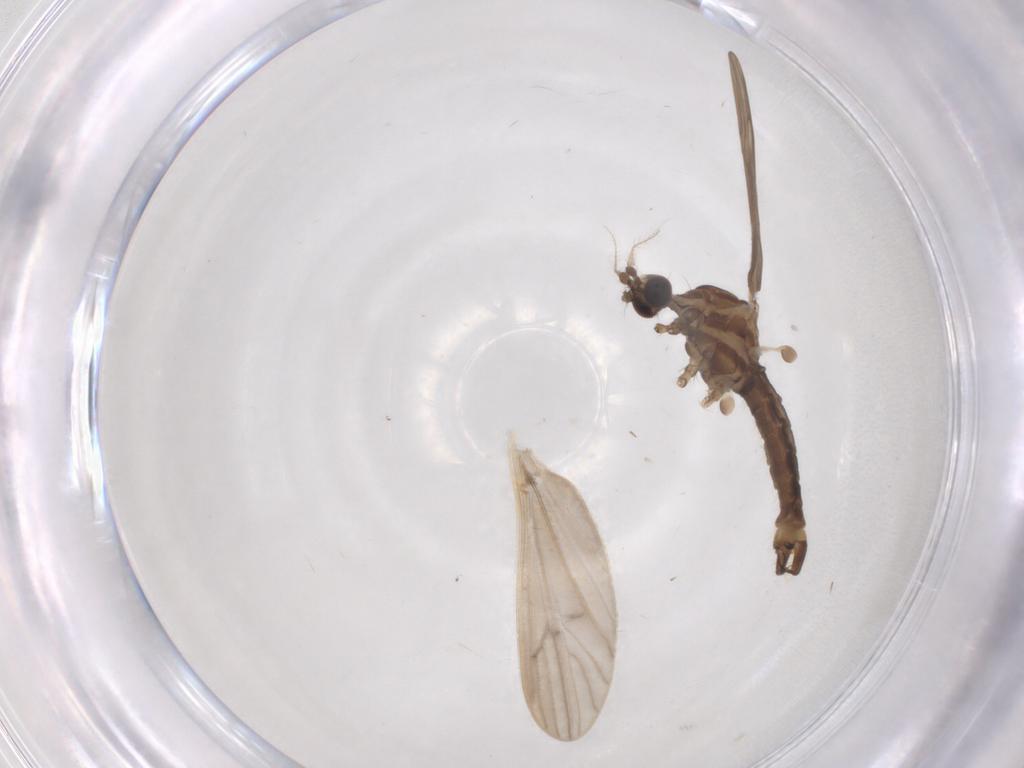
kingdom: Animalia
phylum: Arthropoda
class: Insecta
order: Diptera
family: Limoniidae
